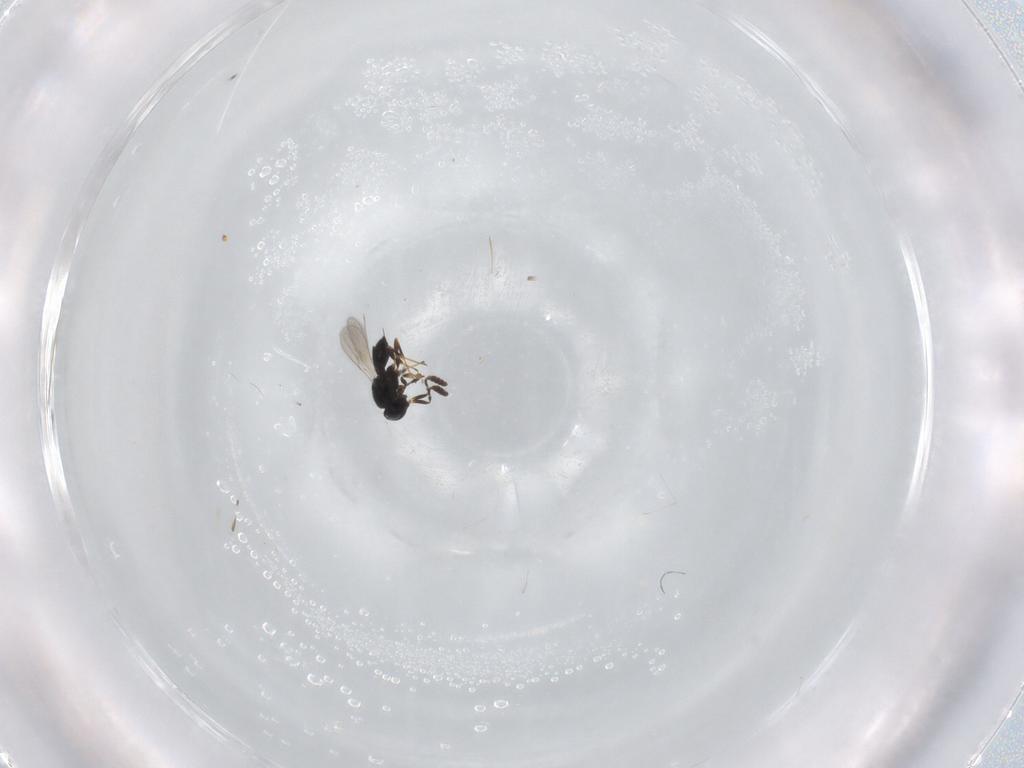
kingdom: Animalia
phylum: Arthropoda
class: Insecta
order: Hymenoptera
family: Scelionidae
